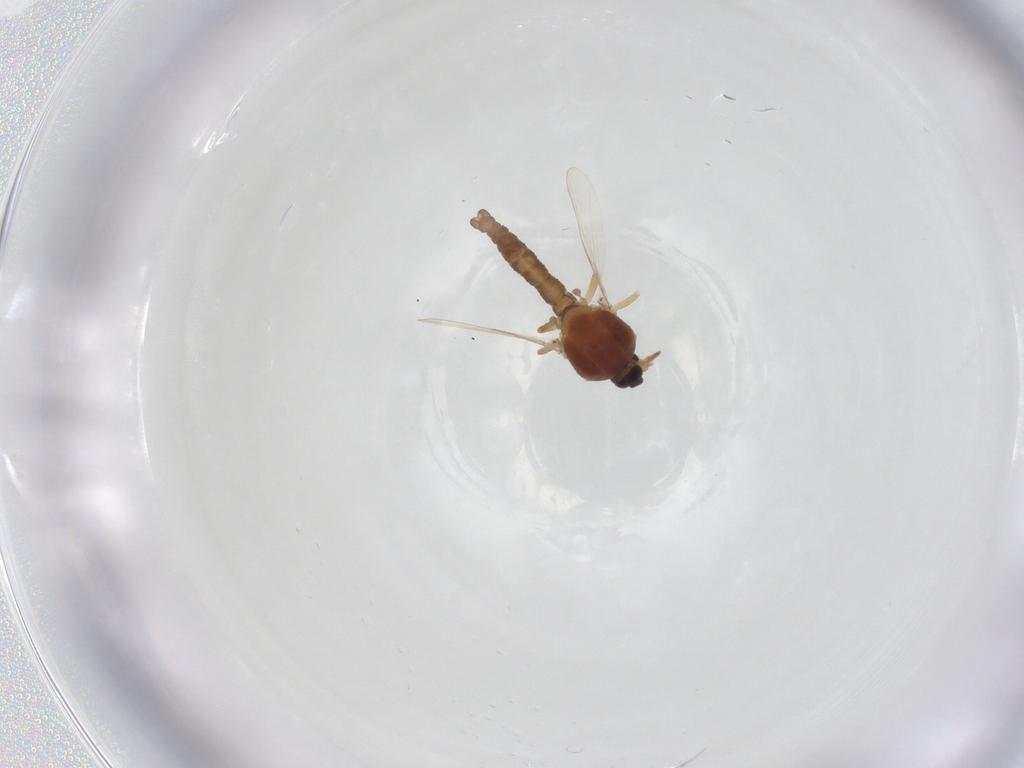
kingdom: Animalia
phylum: Arthropoda
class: Insecta
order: Diptera
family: Ceratopogonidae
